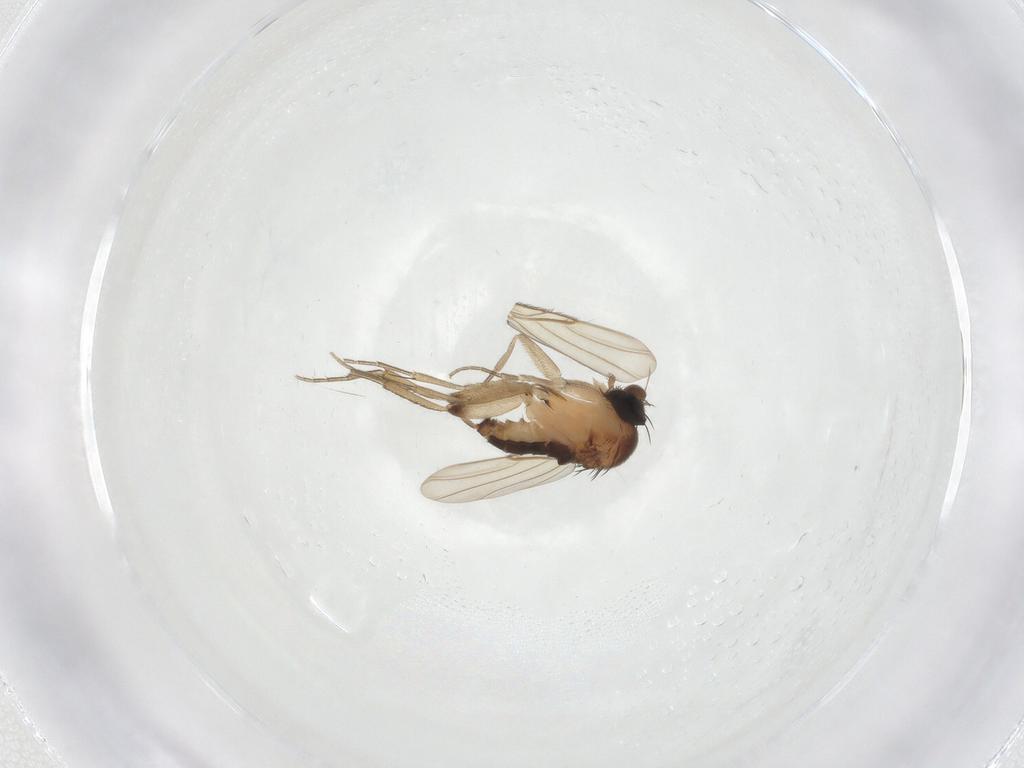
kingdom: Animalia
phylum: Arthropoda
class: Insecta
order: Diptera
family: Phoridae
